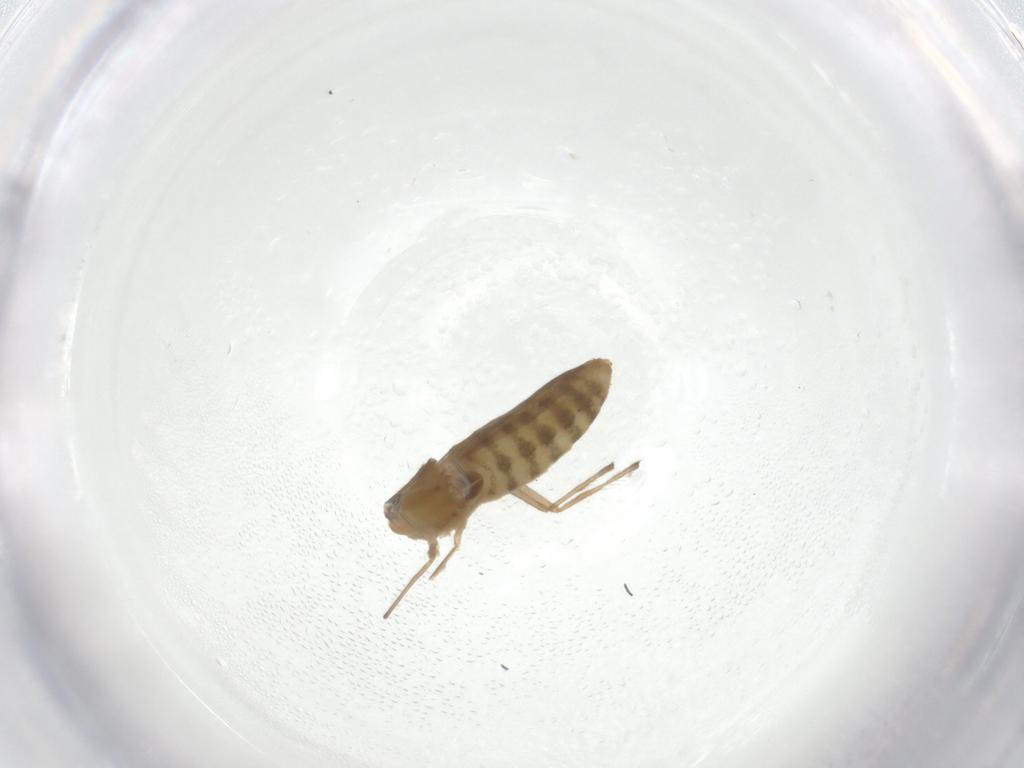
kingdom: Animalia
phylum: Arthropoda
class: Insecta
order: Diptera
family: Chironomidae
